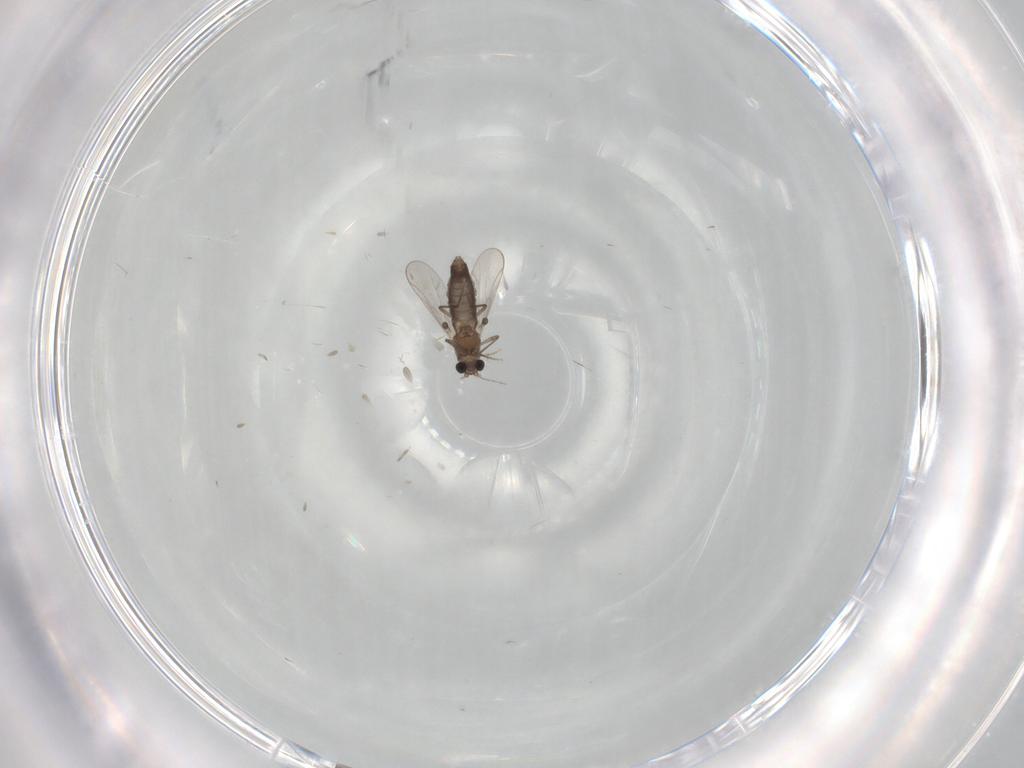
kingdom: Animalia
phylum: Arthropoda
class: Insecta
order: Diptera
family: Chironomidae
